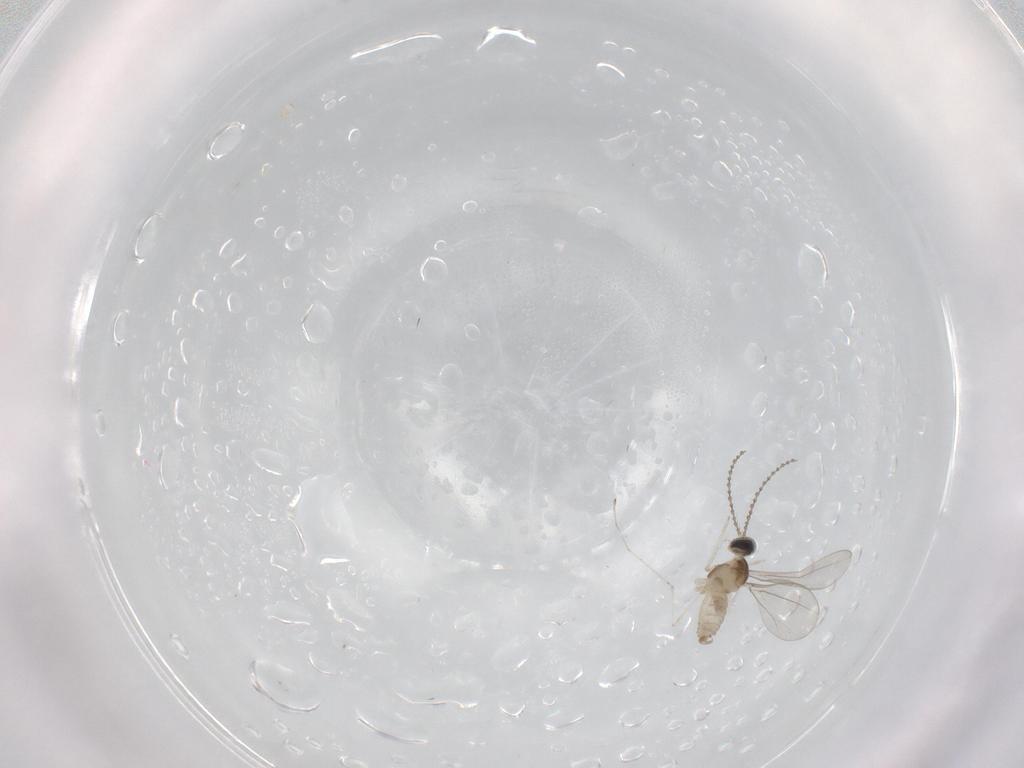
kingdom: Animalia
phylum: Arthropoda
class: Insecta
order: Diptera
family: Cecidomyiidae
